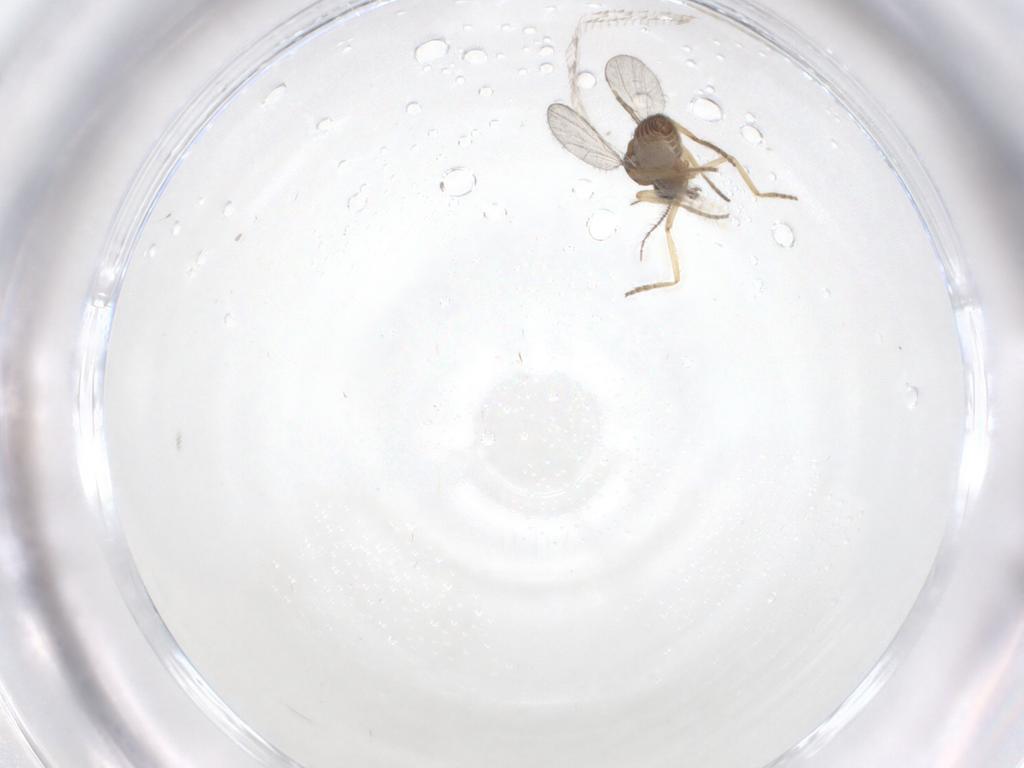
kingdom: Animalia
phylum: Arthropoda
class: Insecta
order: Diptera
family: Ceratopogonidae
